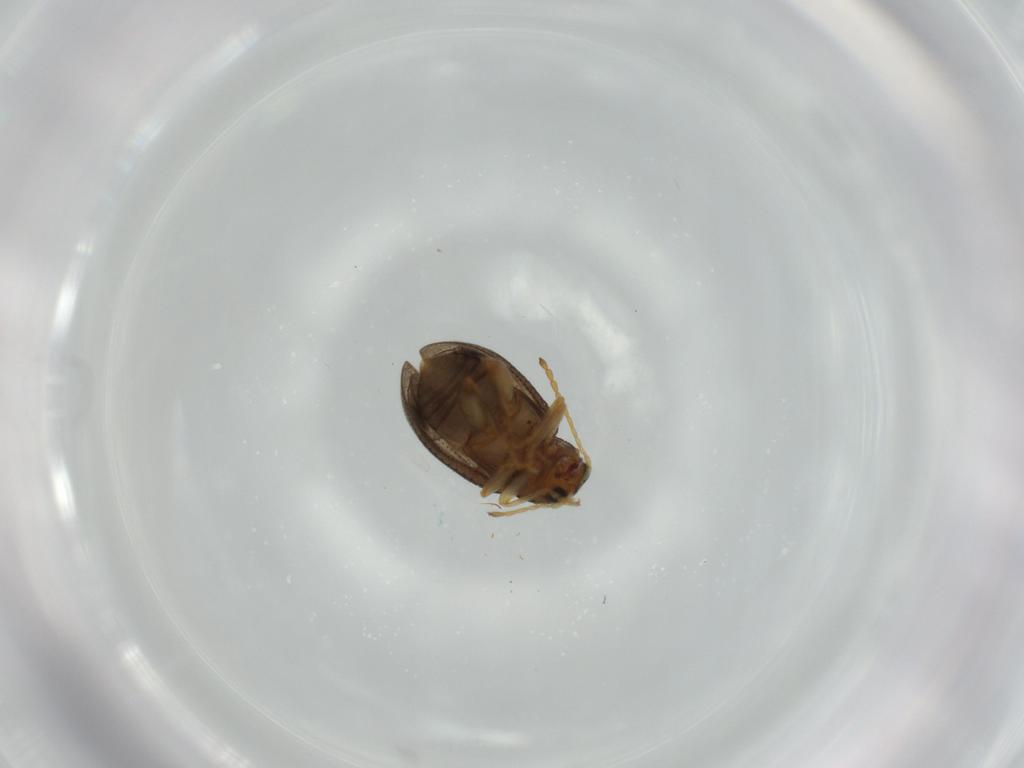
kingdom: Animalia
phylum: Arthropoda
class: Insecta
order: Coleoptera
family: Chrysomelidae
